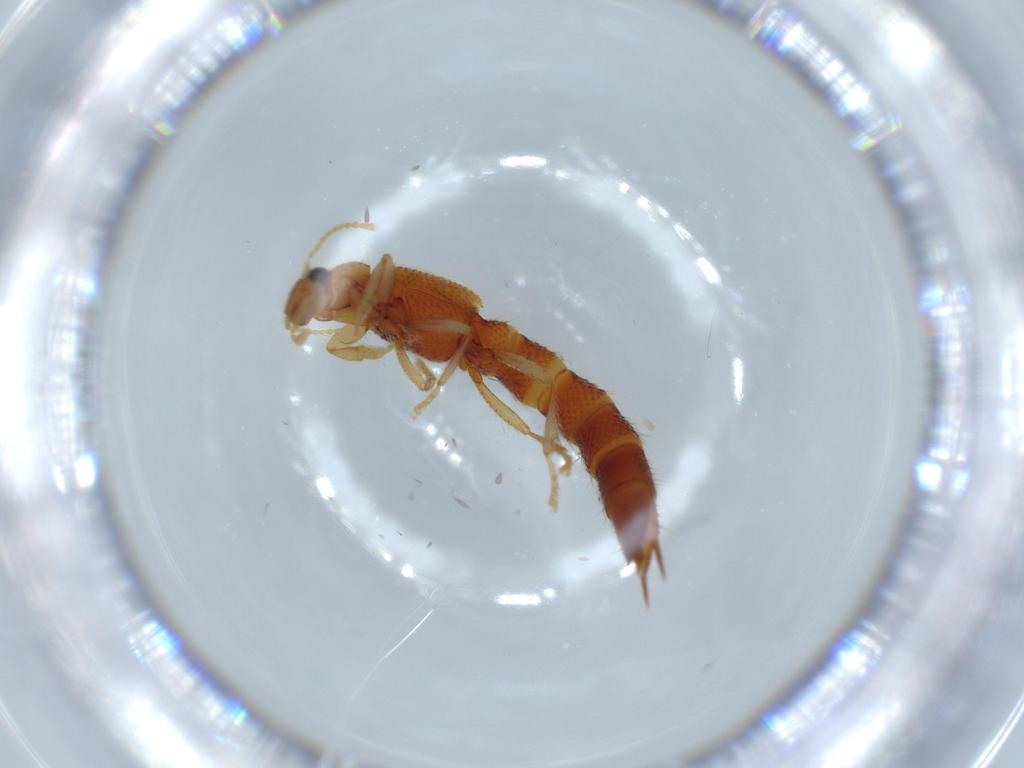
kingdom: Animalia
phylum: Arthropoda
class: Insecta
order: Coleoptera
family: Staphylinidae
